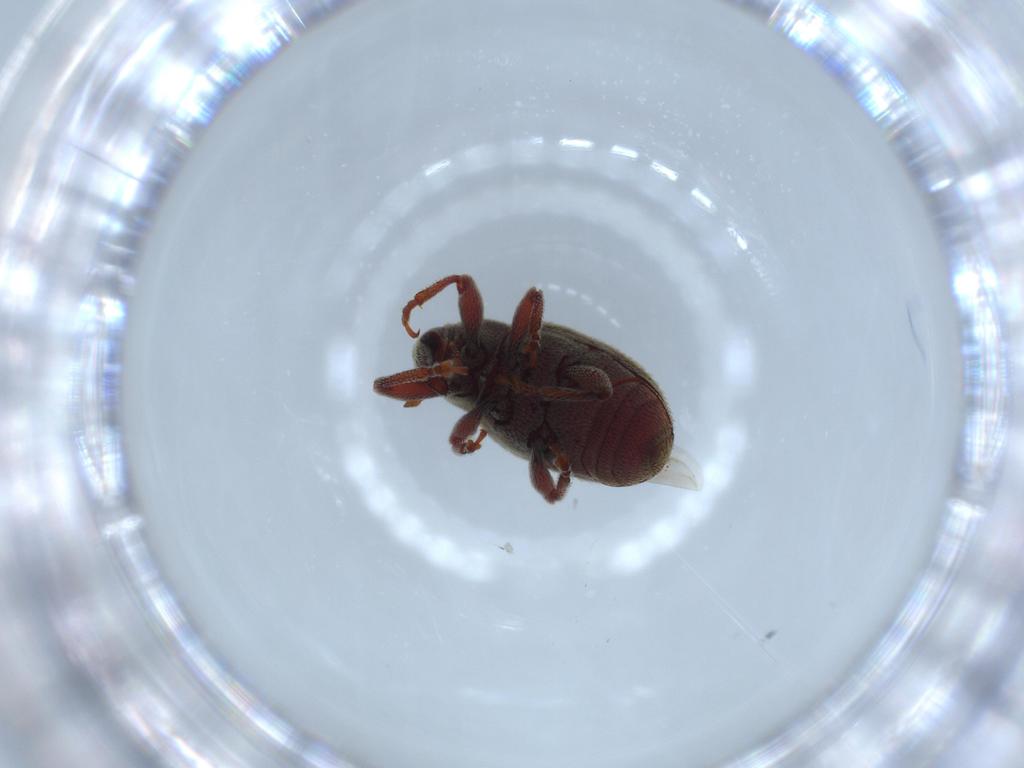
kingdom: Animalia
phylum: Arthropoda
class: Insecta
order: Coleoptera
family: Curculionidae
